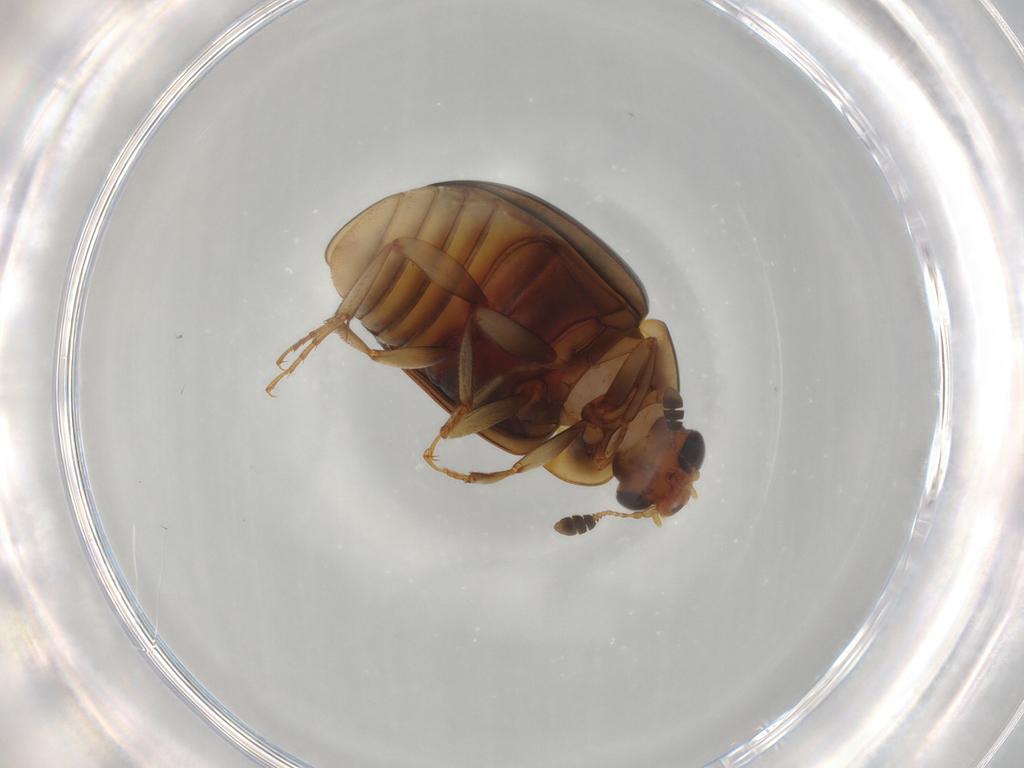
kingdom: Animalia
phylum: Arthropoda
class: Insecta
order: Coleoptera
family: Nitidulidae
